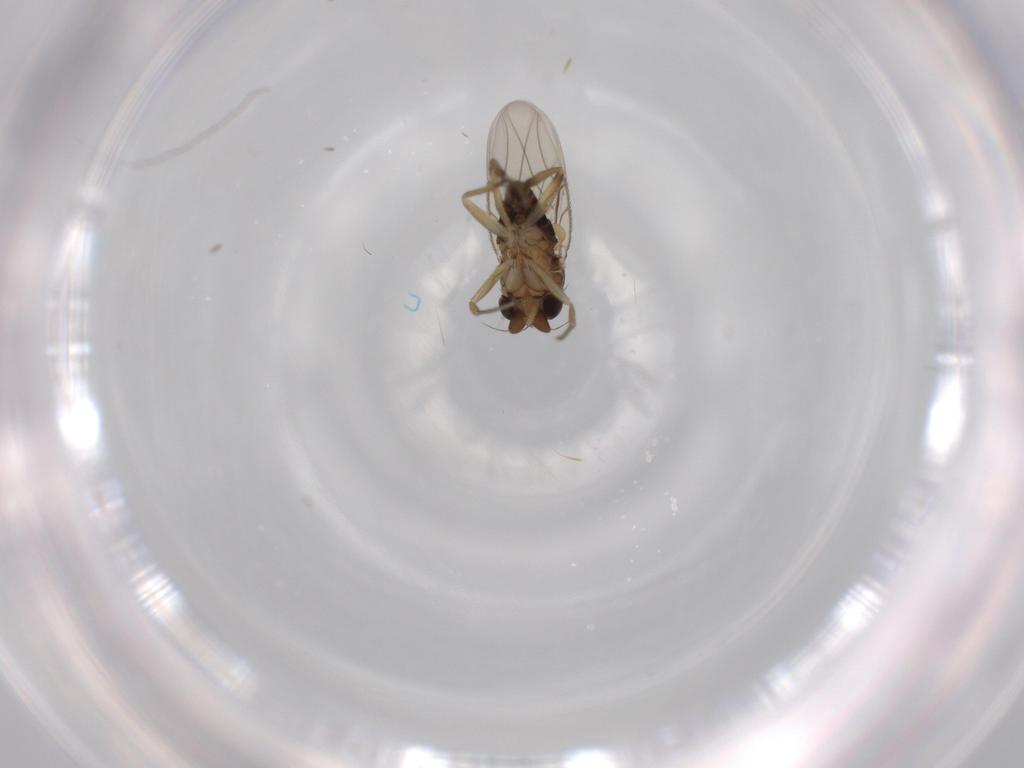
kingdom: Animalia
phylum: Arthropoda
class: Insecta
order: Diptera
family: Phoridae
